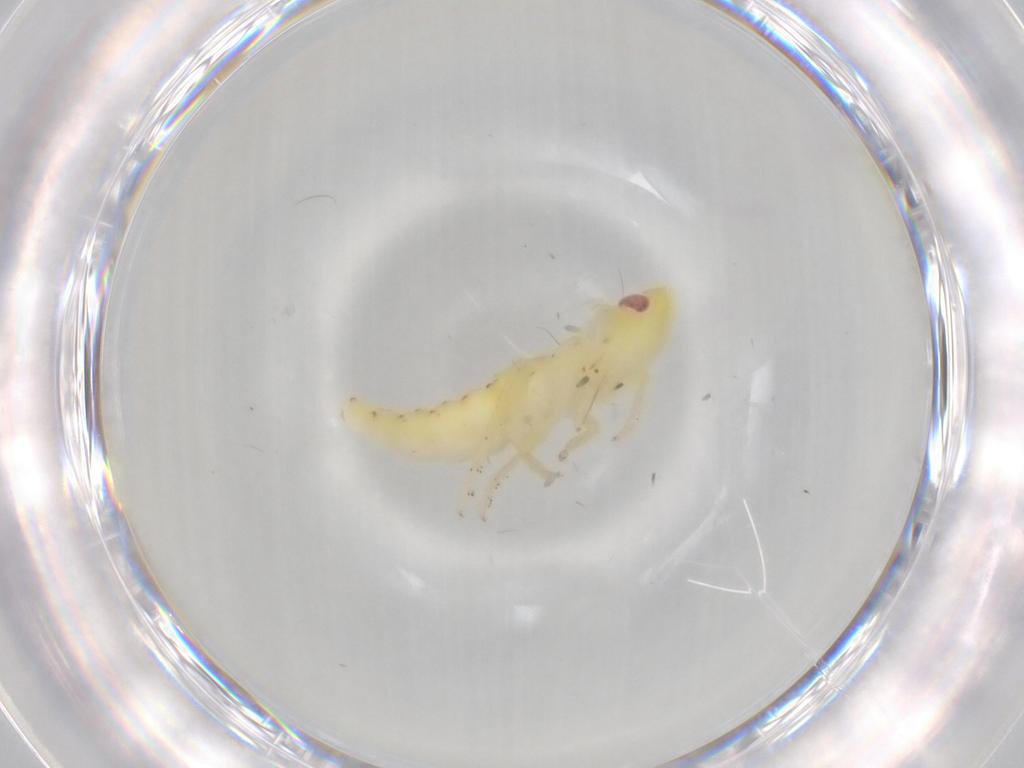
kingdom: Animalia
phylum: Arthropoda
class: Insecta
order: Hemiptera
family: Tropiduchidae
